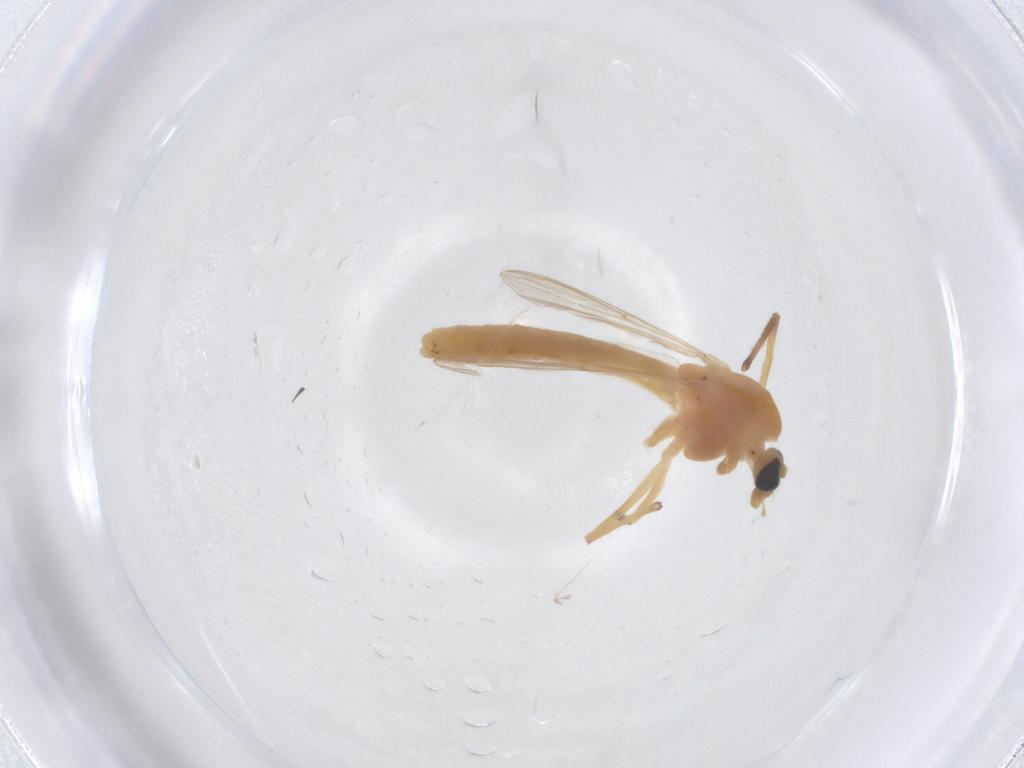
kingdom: Animalia
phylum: Arthropoda
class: Insecta
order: Diptera
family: Chironomidae
